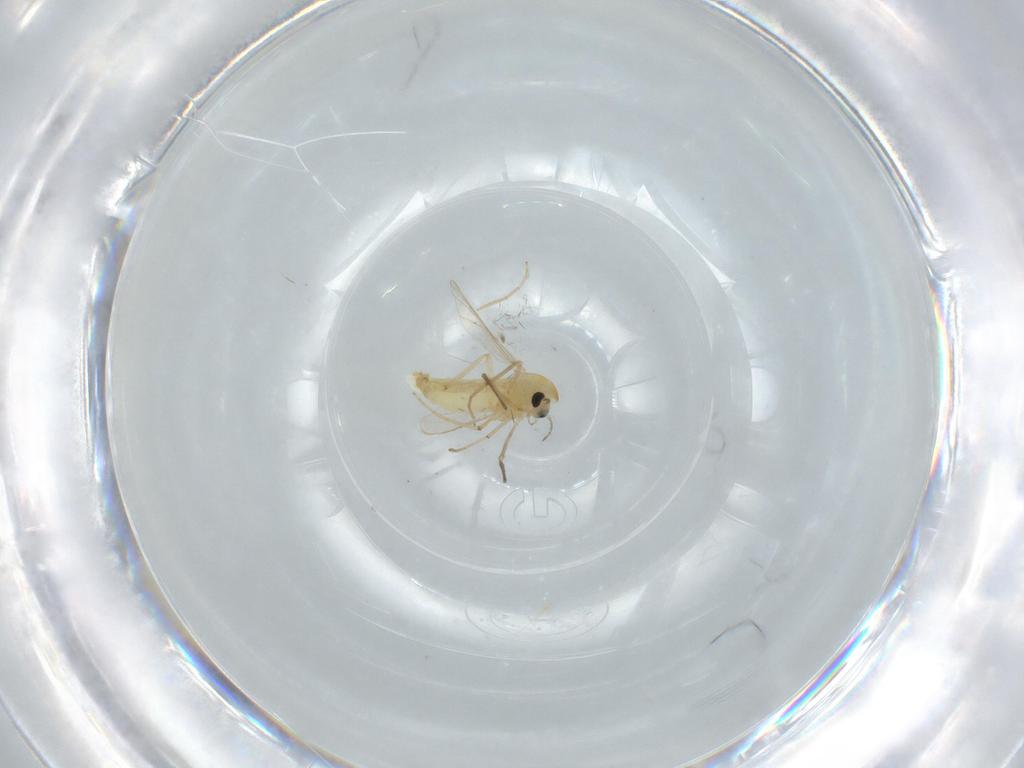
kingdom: Animalia
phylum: Arthropoda
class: Insecta
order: Diptera
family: Chironomidae
